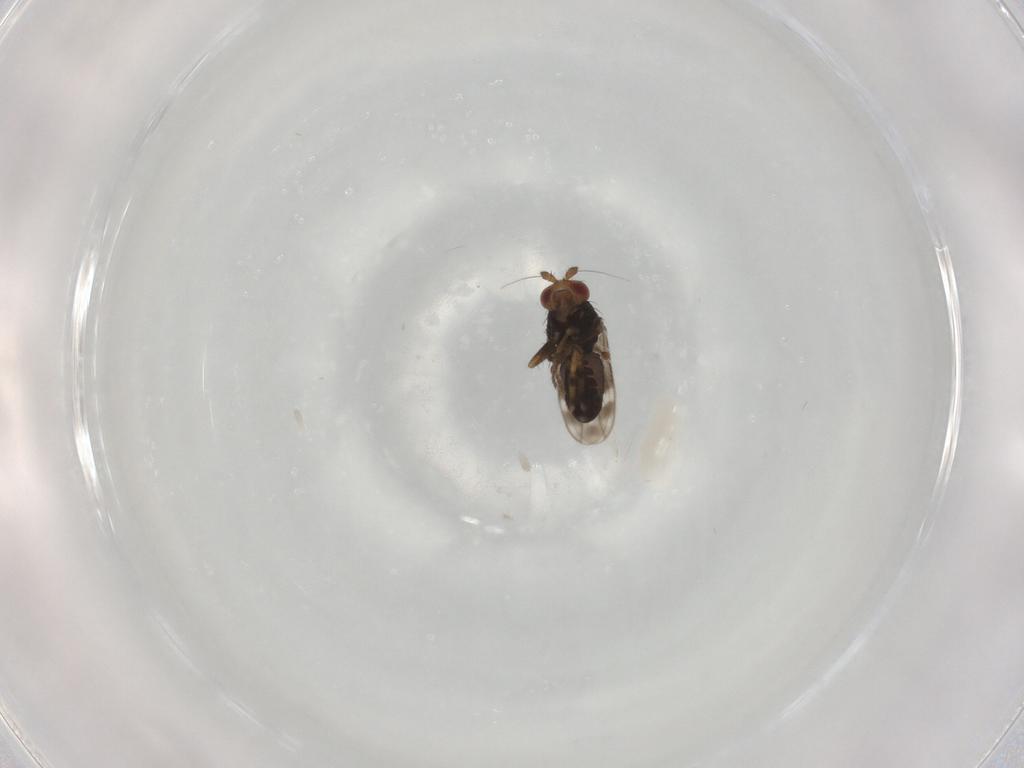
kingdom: Animalia
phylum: Arthropoda
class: Insecta
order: Diptera
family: Sphaeroceridae
